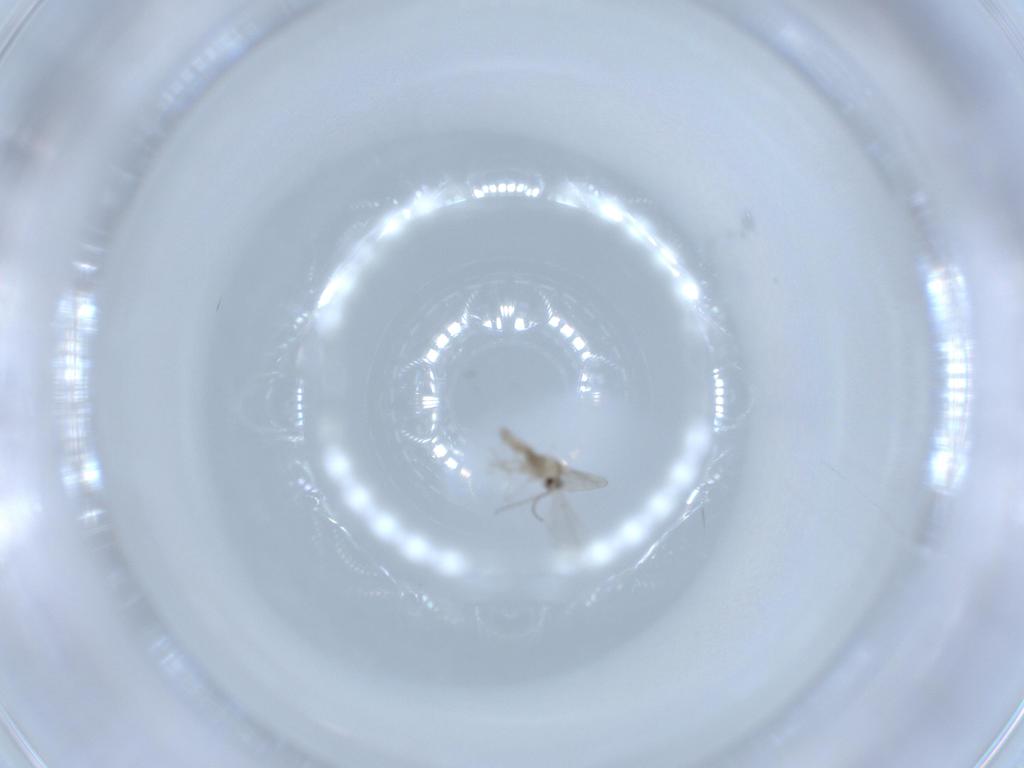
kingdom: Animalia
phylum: Arthropoda
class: Insecta
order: Diptera
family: Cecidomyiidae
